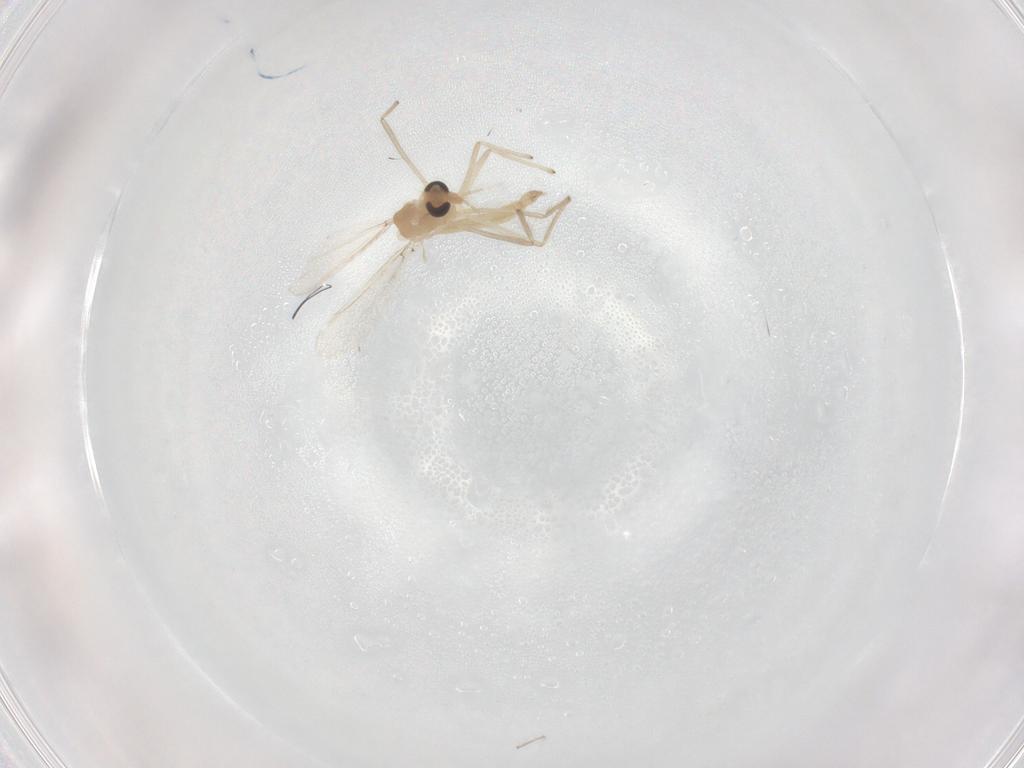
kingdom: Animalia
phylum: Arthropoda
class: Insecta
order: Diptera
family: Chironomidae
